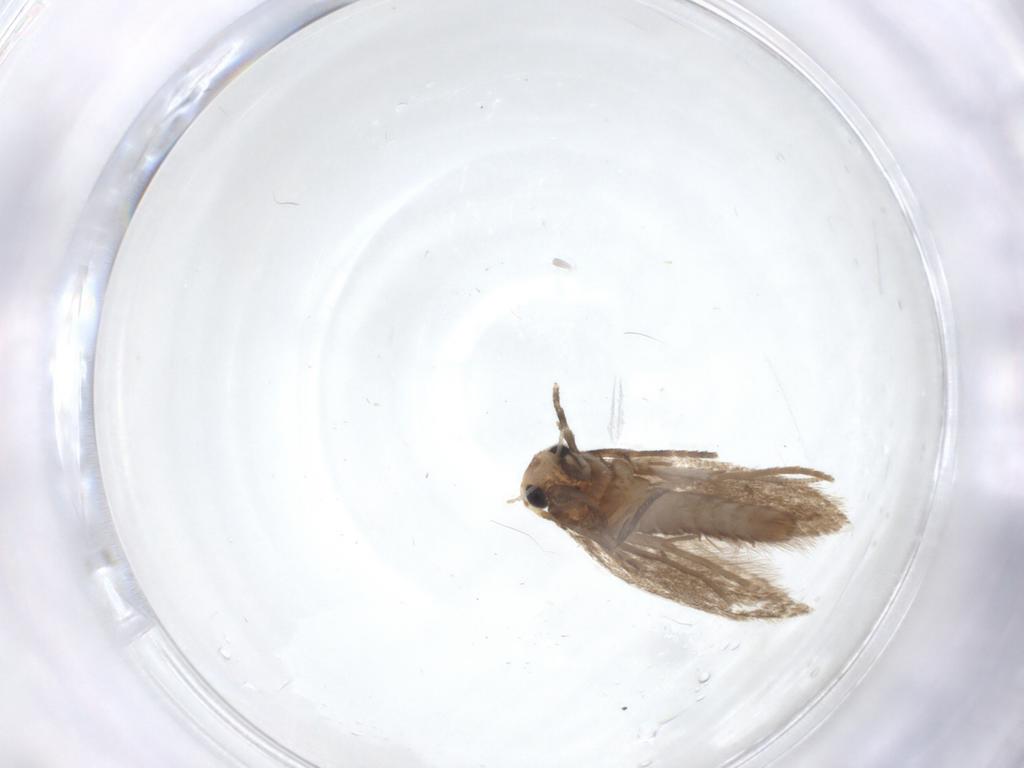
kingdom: Animalia
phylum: Arthropoda
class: Insecta
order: Lepidoptera
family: Tineidae
